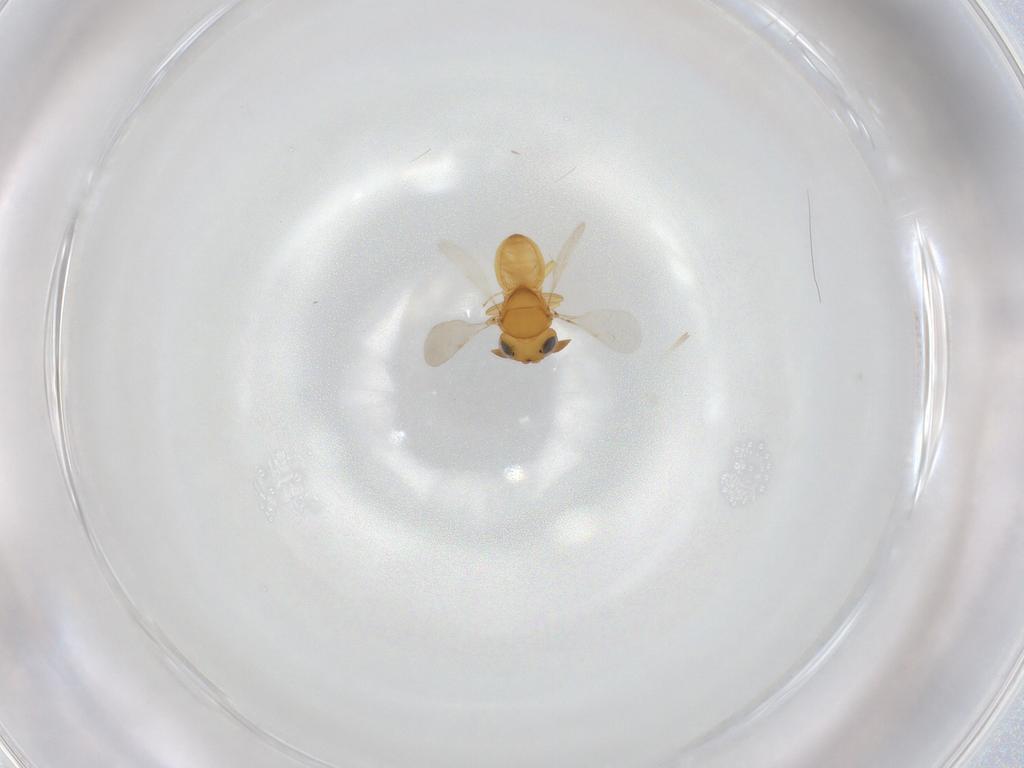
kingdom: Animalia
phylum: Arthropoda
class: Insecta
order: Hymenoptera
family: Scelionidae
